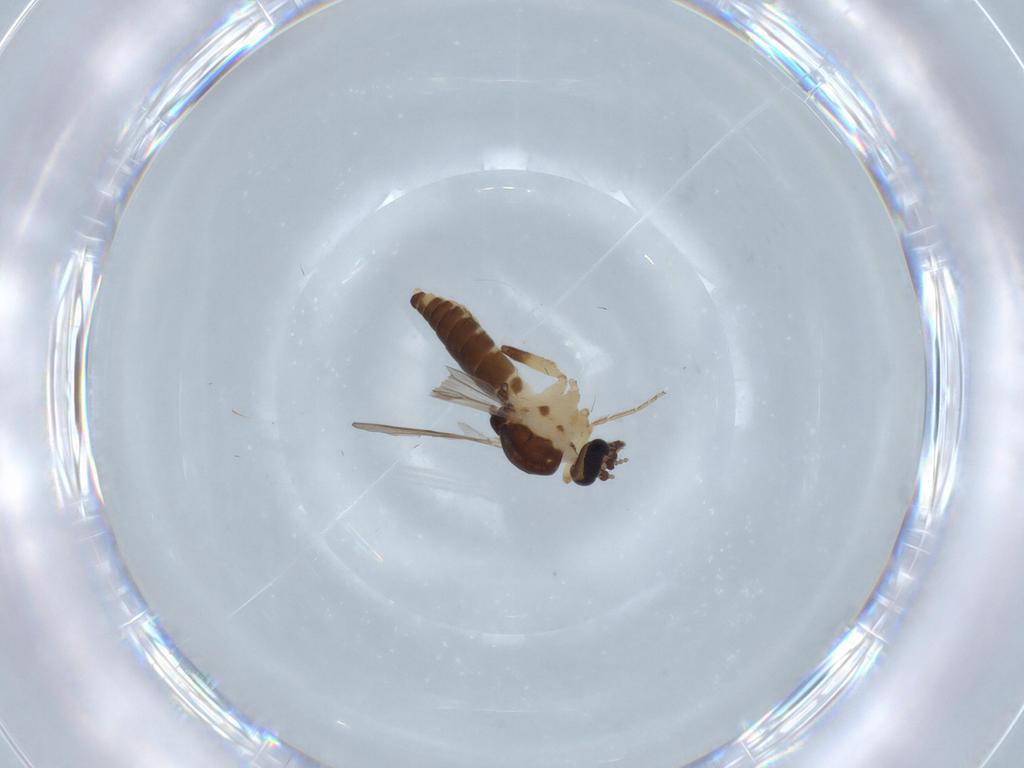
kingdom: Animalia
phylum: Arthropoda
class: Insecta
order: Diptera
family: Ceratopogonidae
